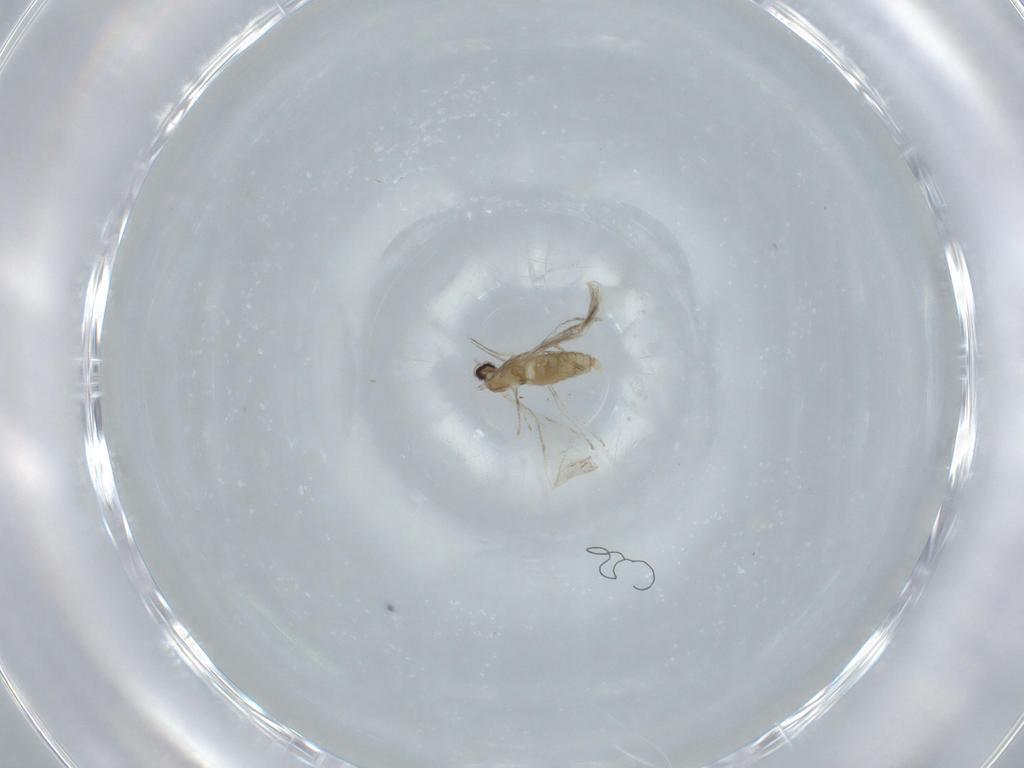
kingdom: Animalia
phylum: Arthropoda
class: Insecta
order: Diptera
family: Cecidomyiidae
